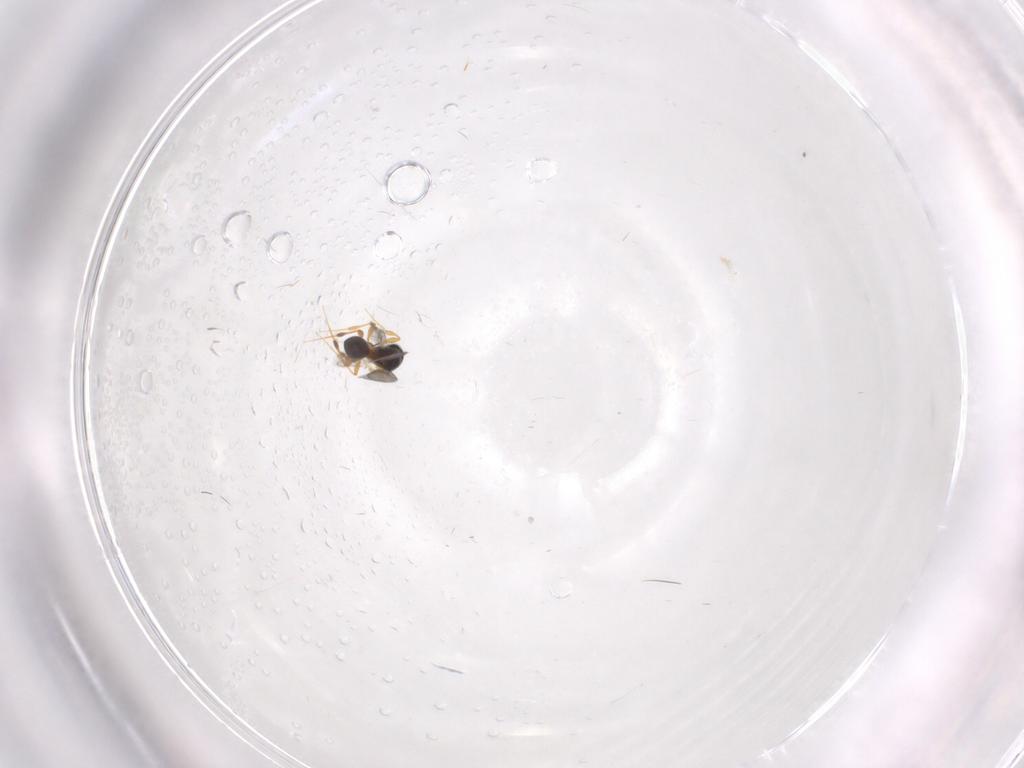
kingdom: Animalia
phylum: Arthropoda
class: Insecta
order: Hymenoptera
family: Platygastridae
